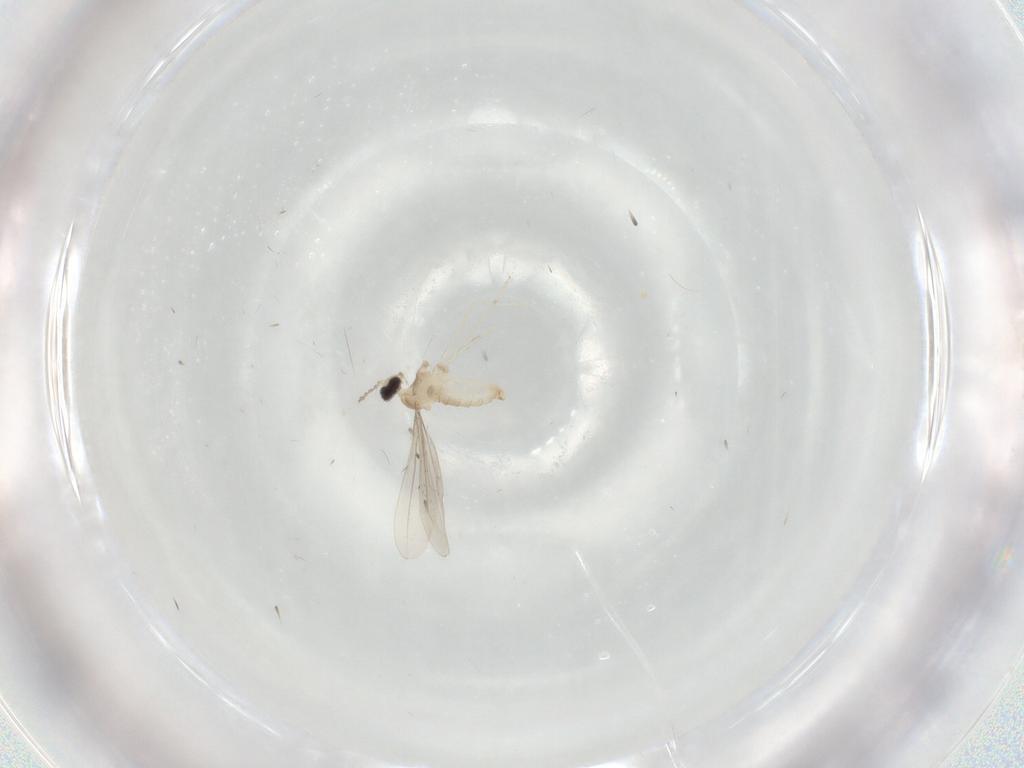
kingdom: Animalia
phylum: Arthropoda
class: Insecta
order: Diptera
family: Cecidomyiidae
